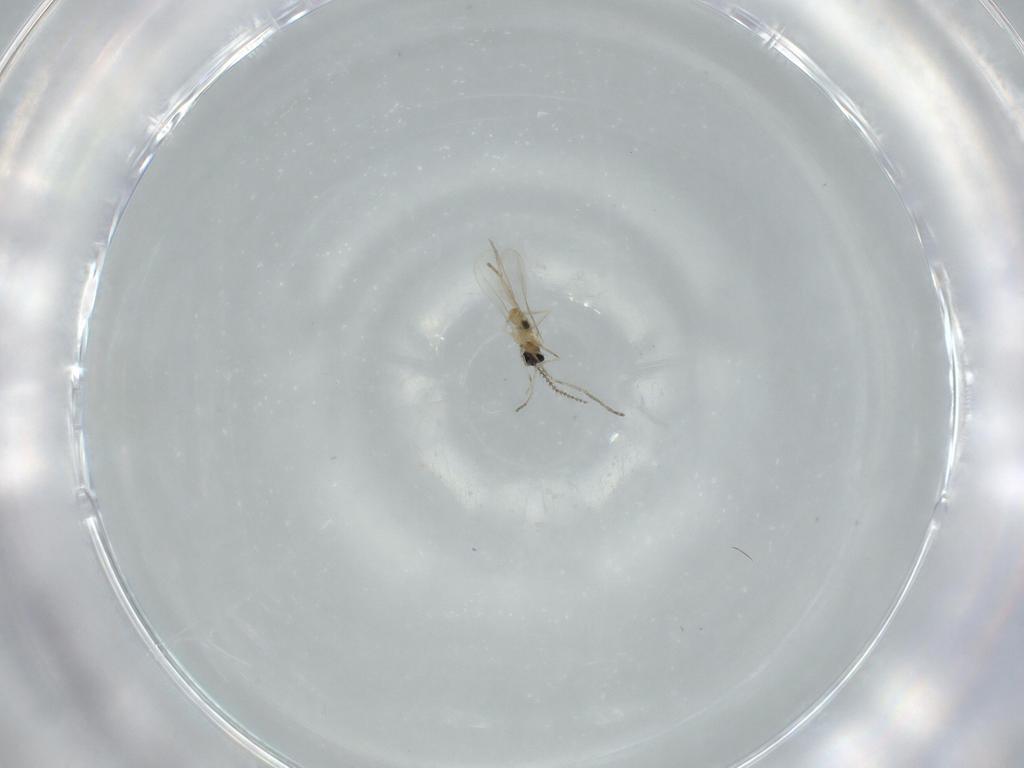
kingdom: Animalia
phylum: Arthropoda
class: Insecta
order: Diptera
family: Cecidomyiidae
